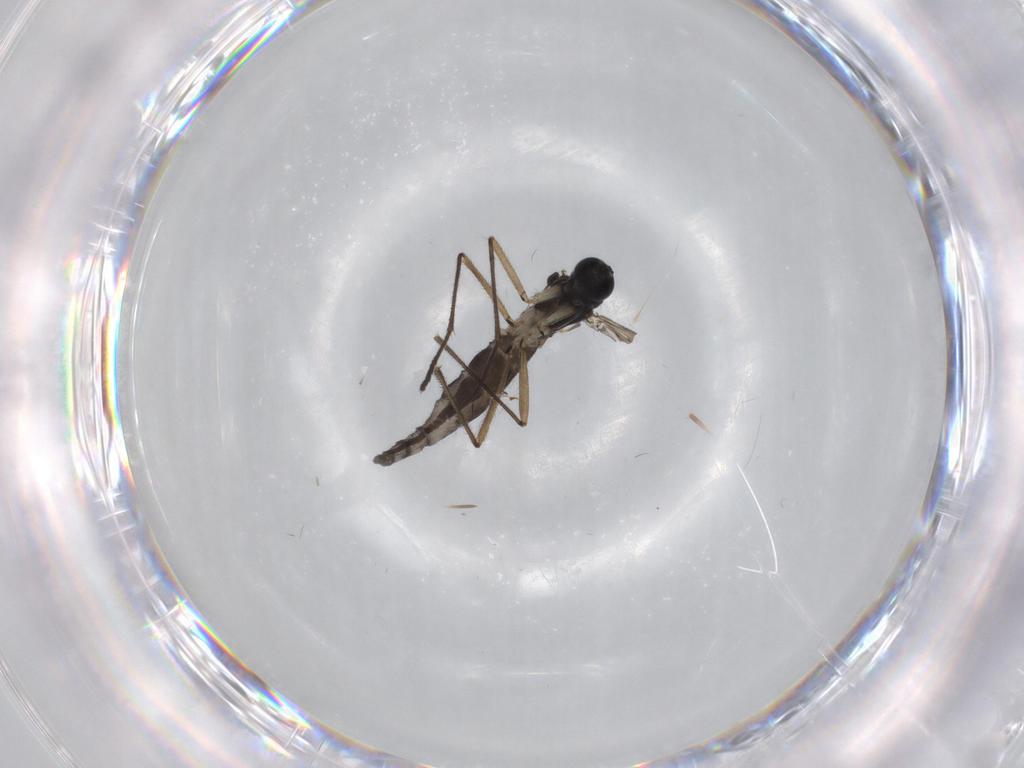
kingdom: Animalia
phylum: Arthropoda
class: Insecta
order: Diptera
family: Sciaridae
